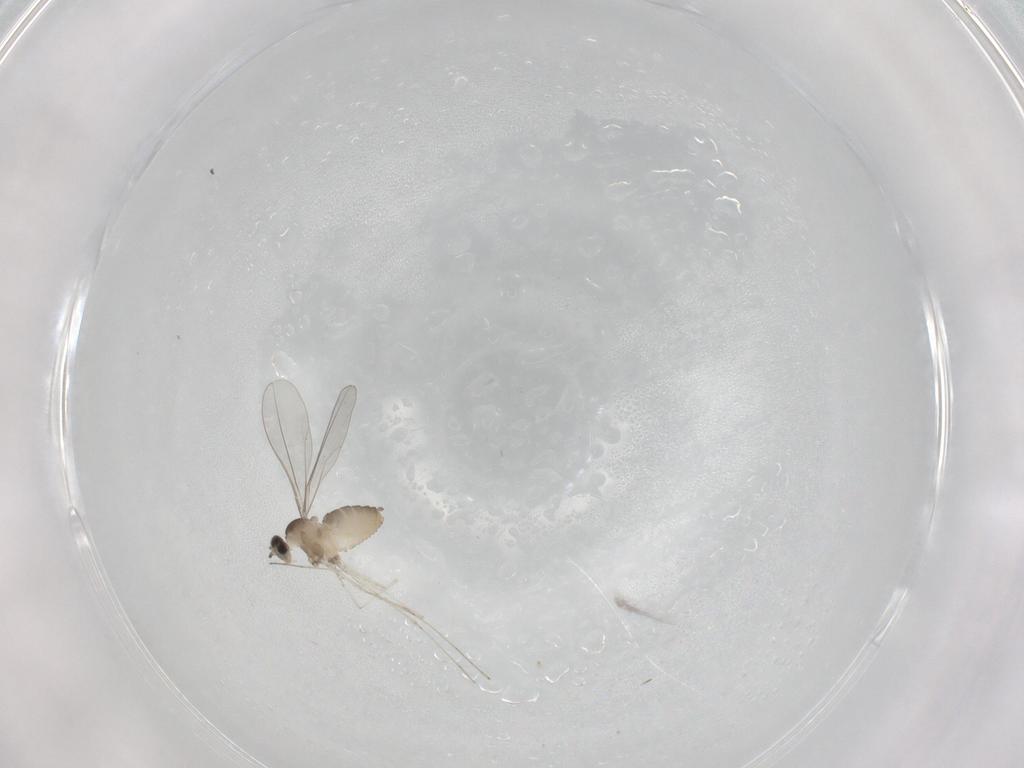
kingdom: Animalia
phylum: Arthropoda
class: Insecta
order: Diptera
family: Cecidomyiidae
